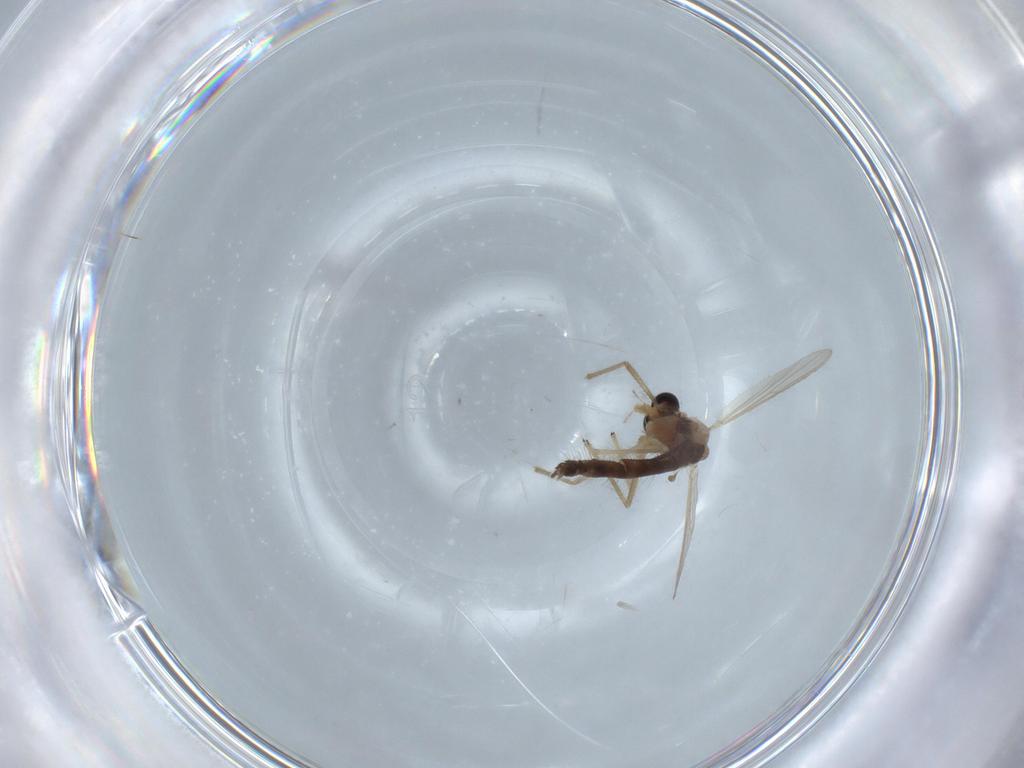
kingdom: Animalia
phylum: Arthropoda
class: Insecta
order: Diptera
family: Chironomidae
